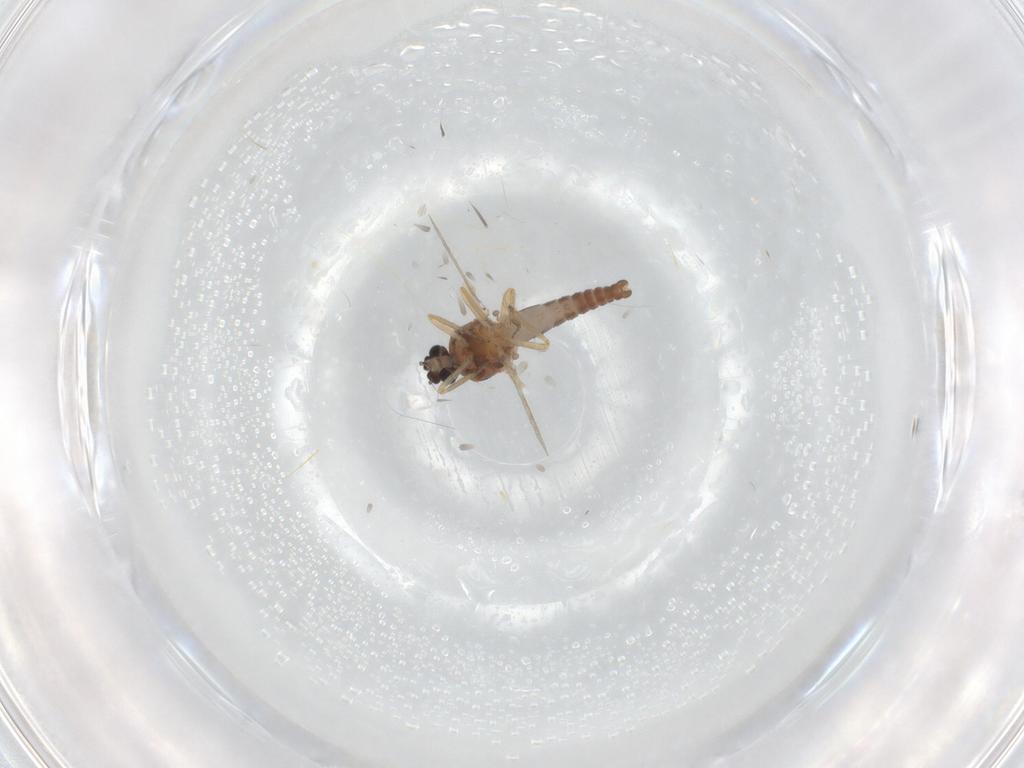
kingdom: Animalia
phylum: Arthropoda
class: Insecta
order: Diptera
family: Ceratopogonidae
